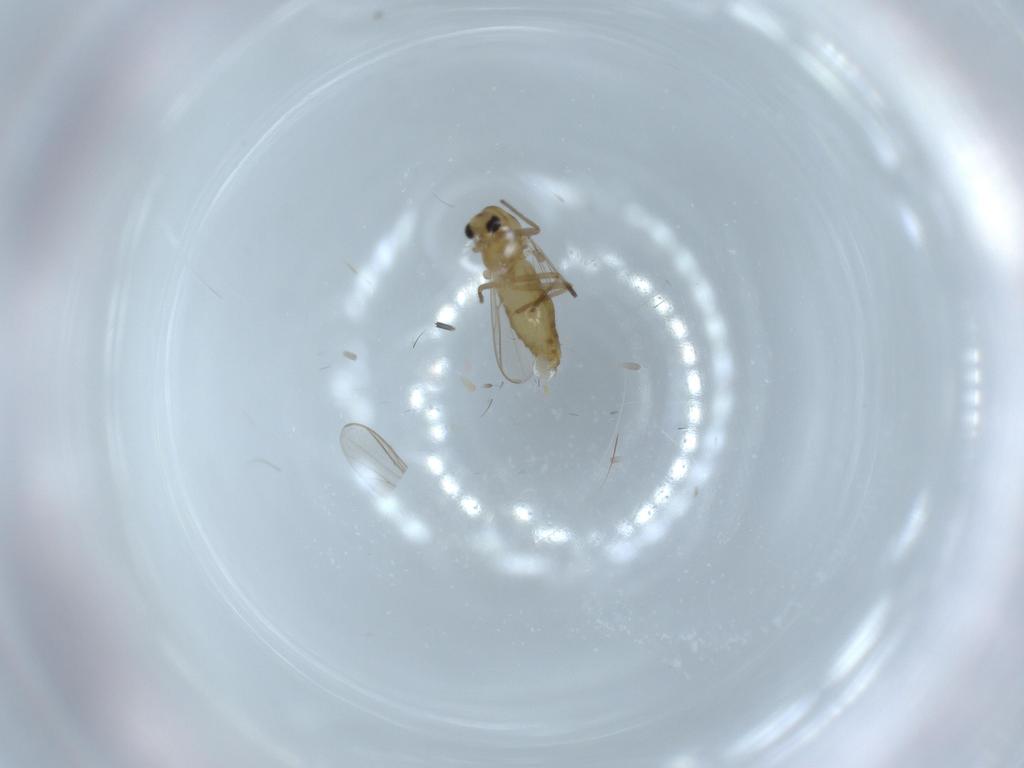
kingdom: Animalia
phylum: Arthropoda
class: Insecta
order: Diptera
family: Chironomidae
